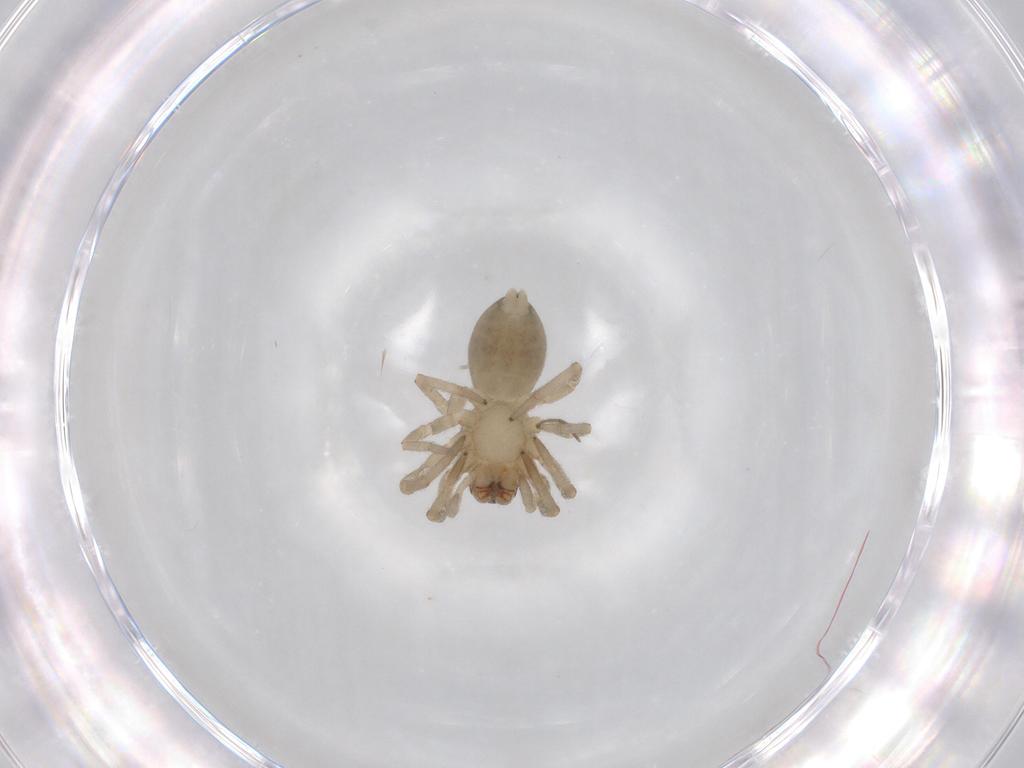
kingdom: Animalia
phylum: Arthropoda
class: Arachnida
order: Araneae
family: Trachelidae
